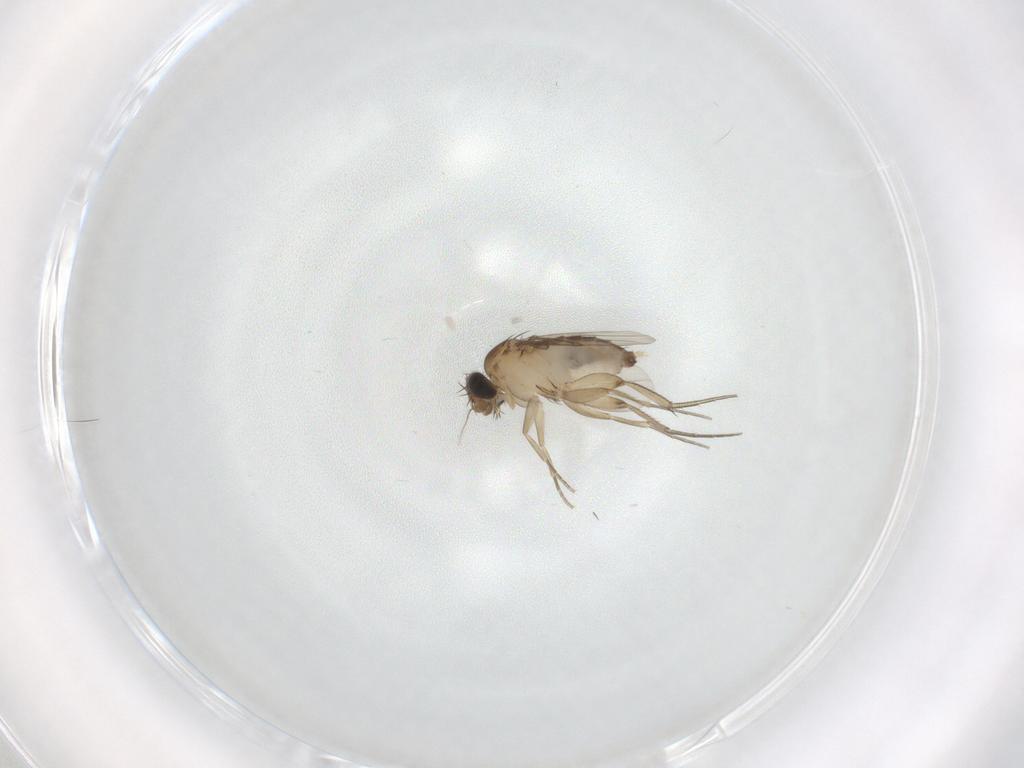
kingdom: Animalia
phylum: Arthropoda
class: Insecta
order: Diptera
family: Phoridae
